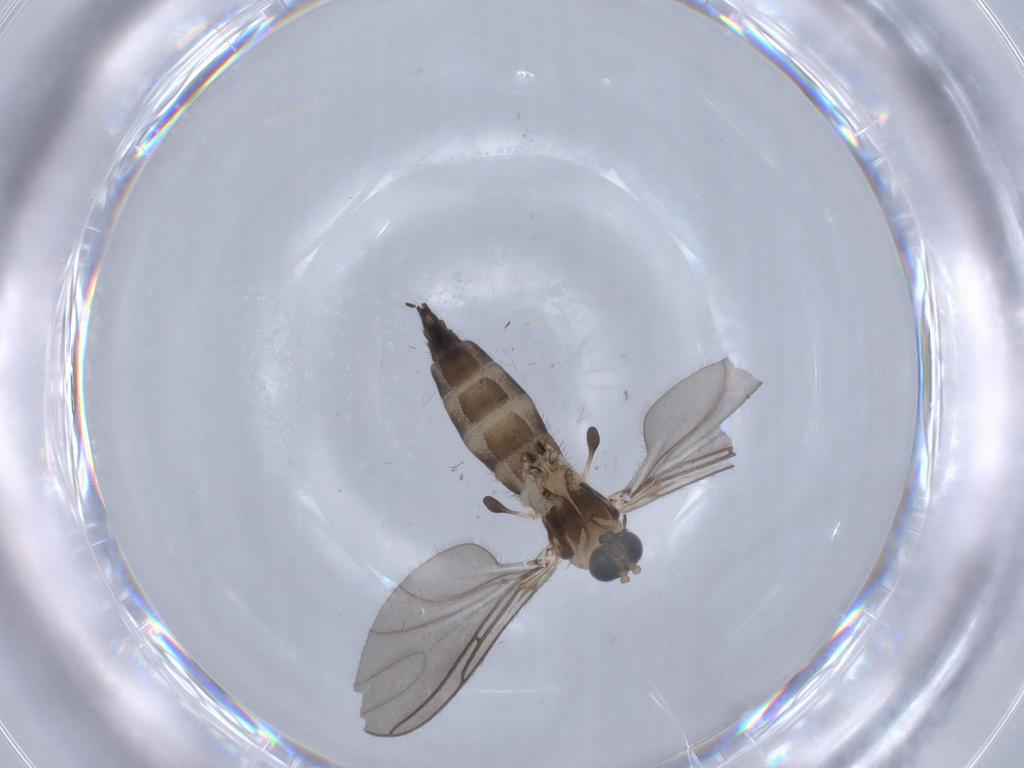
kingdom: Animalia
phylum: Arthropoda
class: Insecta
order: Diptera
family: Sciaridae
